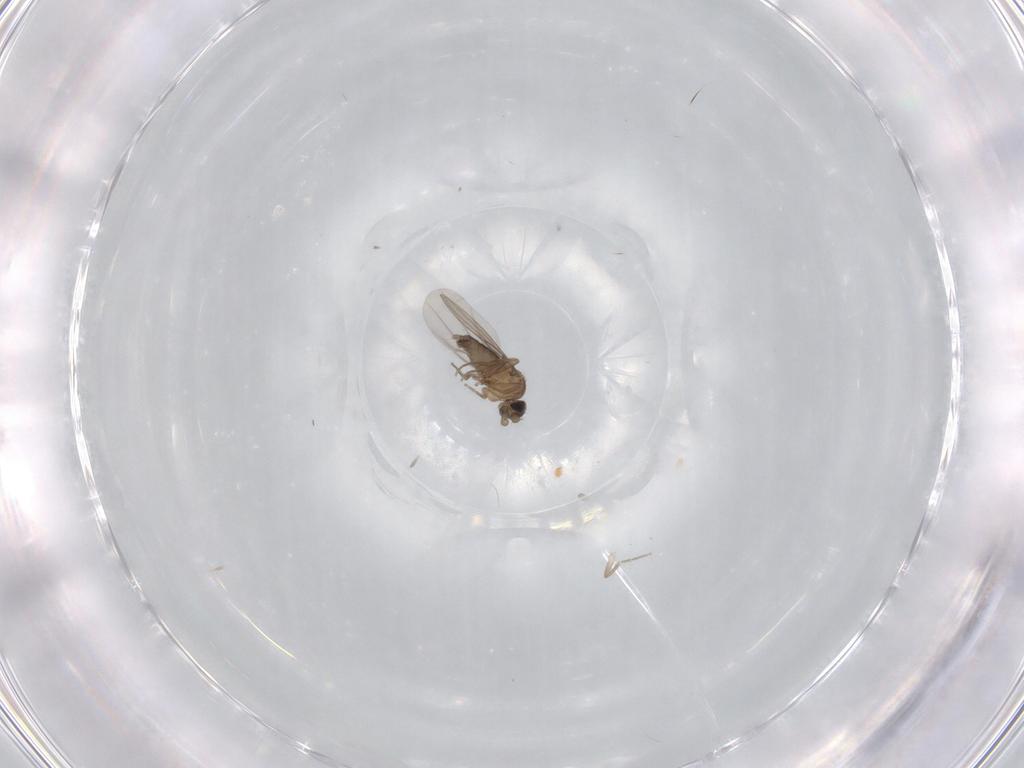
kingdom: Animalia
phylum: Arthropoda
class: Insecta
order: Diptera
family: Phoridae
